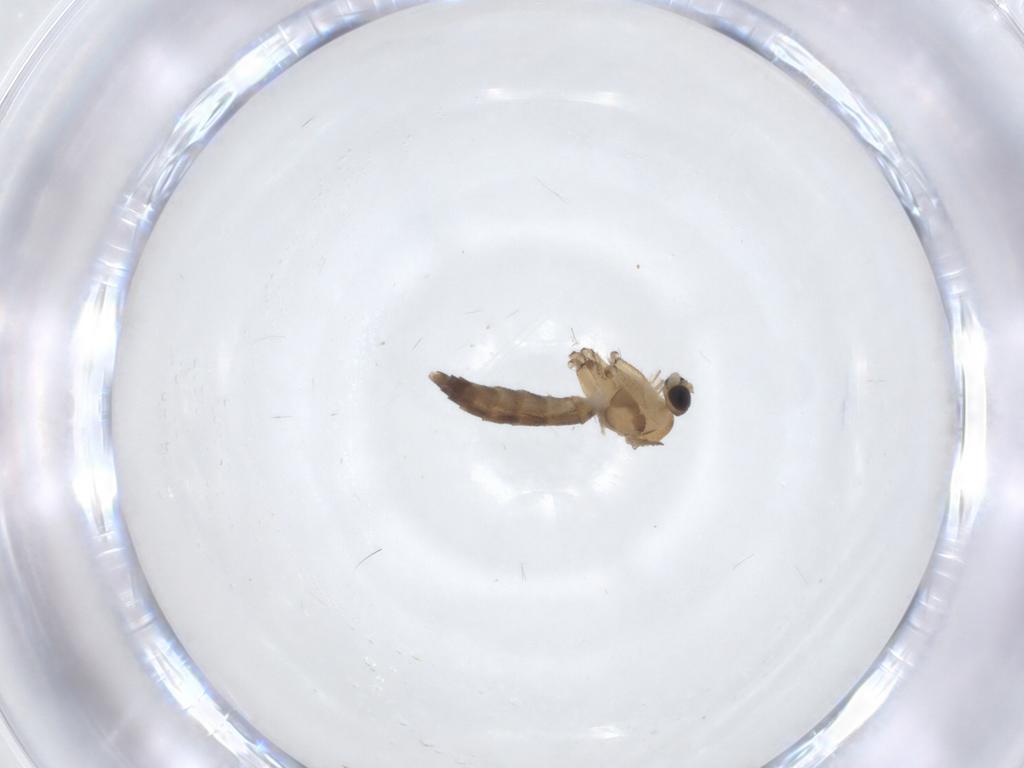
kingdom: Animalia
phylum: Arthropoda
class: Insecta
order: Diptera
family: Keroplatidae
